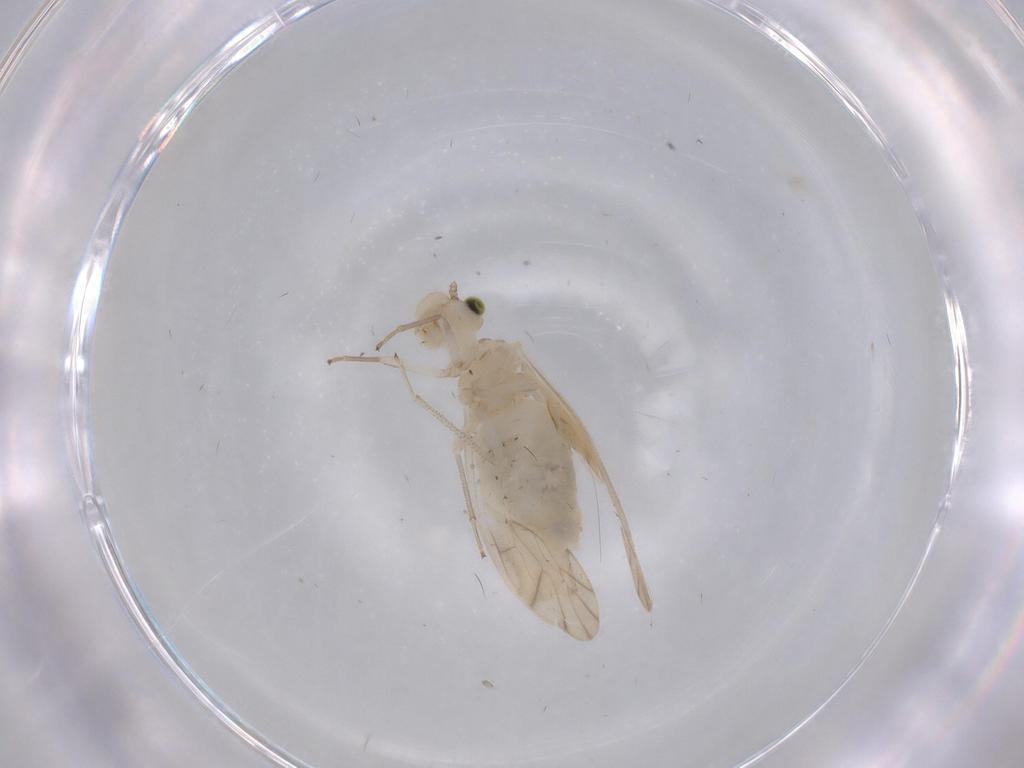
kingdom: Animalia
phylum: Arthropoda
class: Insecta
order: Psocodea
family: Caeciliusidae
